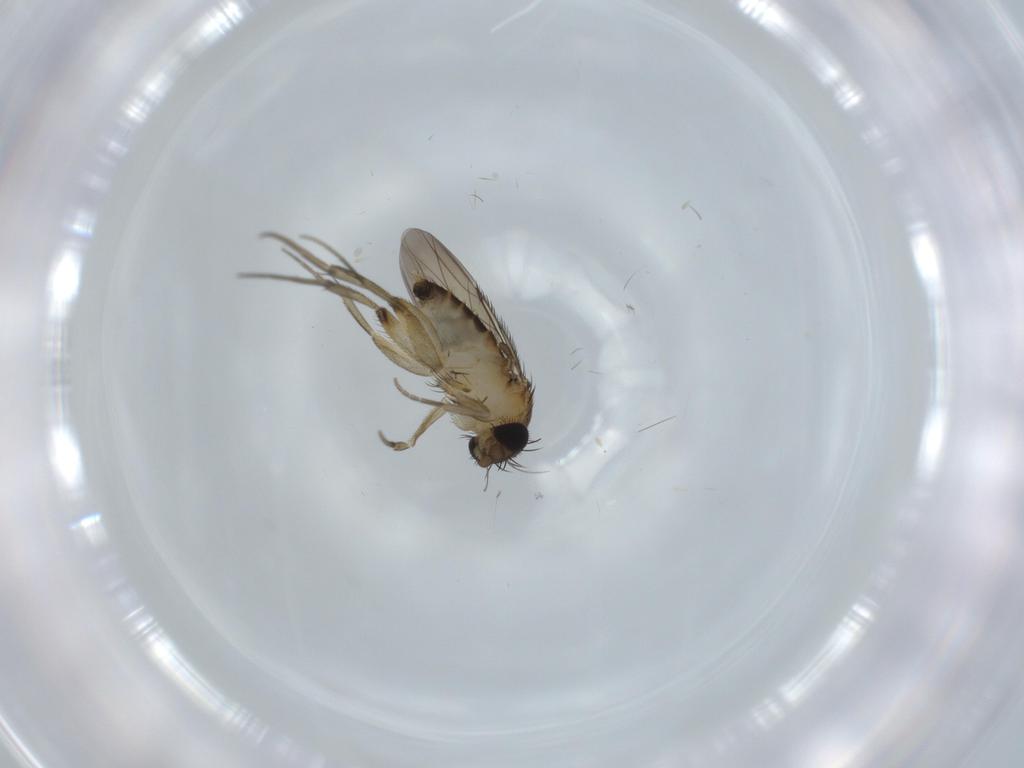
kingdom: Animalia
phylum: Arthropoda
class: Insecta
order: Diptera
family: Phoridae
